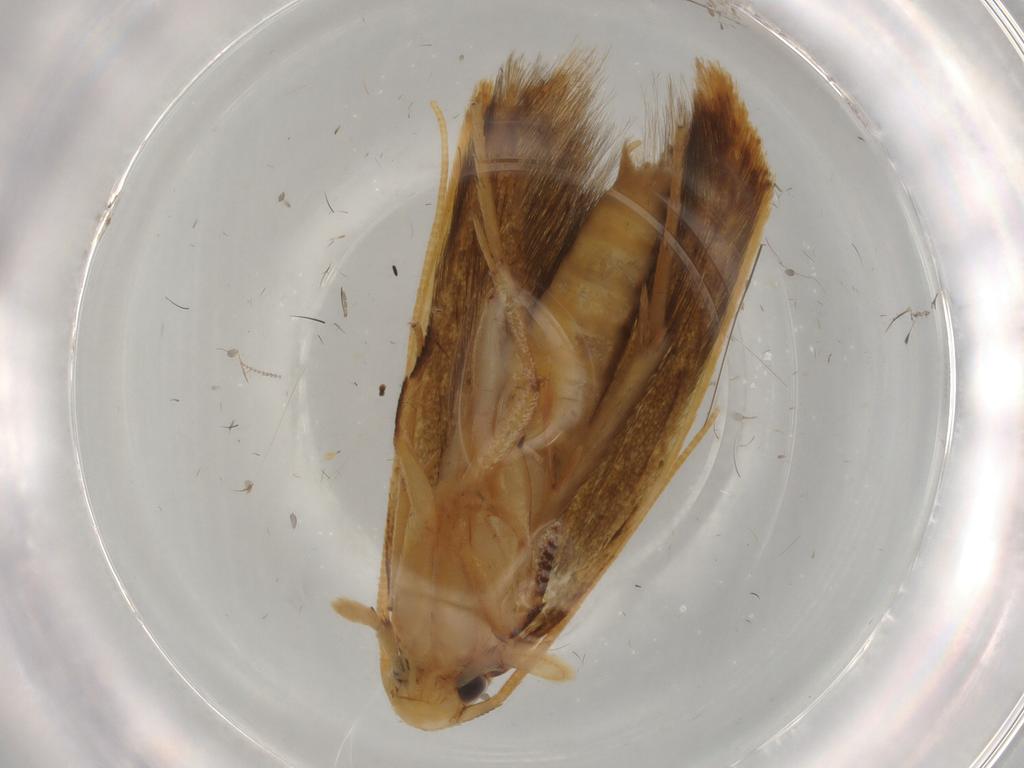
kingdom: Animalia
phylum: Arthropoda
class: Insecta
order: Lepidoptera
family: Tineidae
